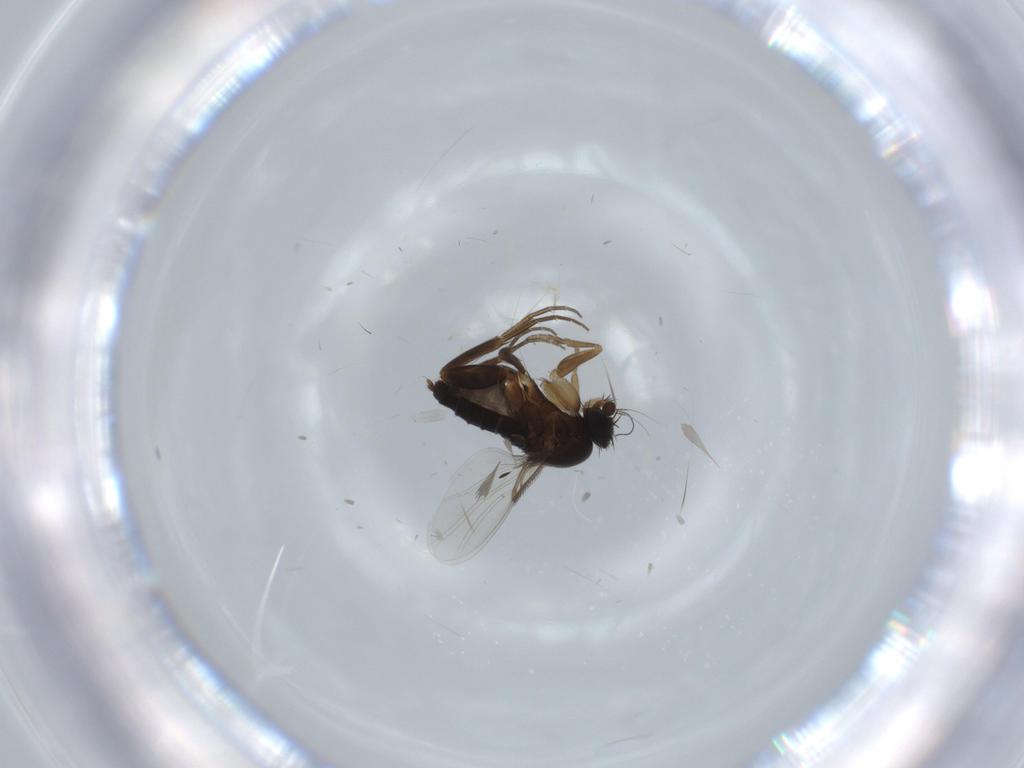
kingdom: Animalia
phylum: Arthropoda
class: Insecta
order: Diptera
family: Phoridae
